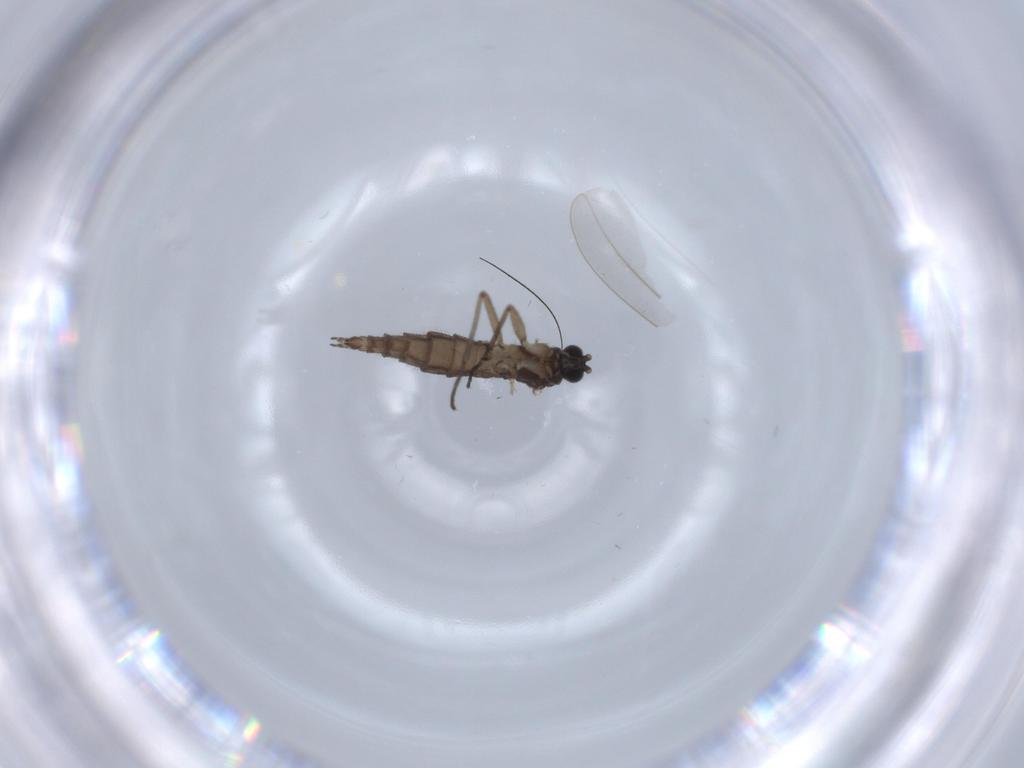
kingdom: Animalia
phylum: Arthropoda
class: Insecta
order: Diptera
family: Sciaridae
